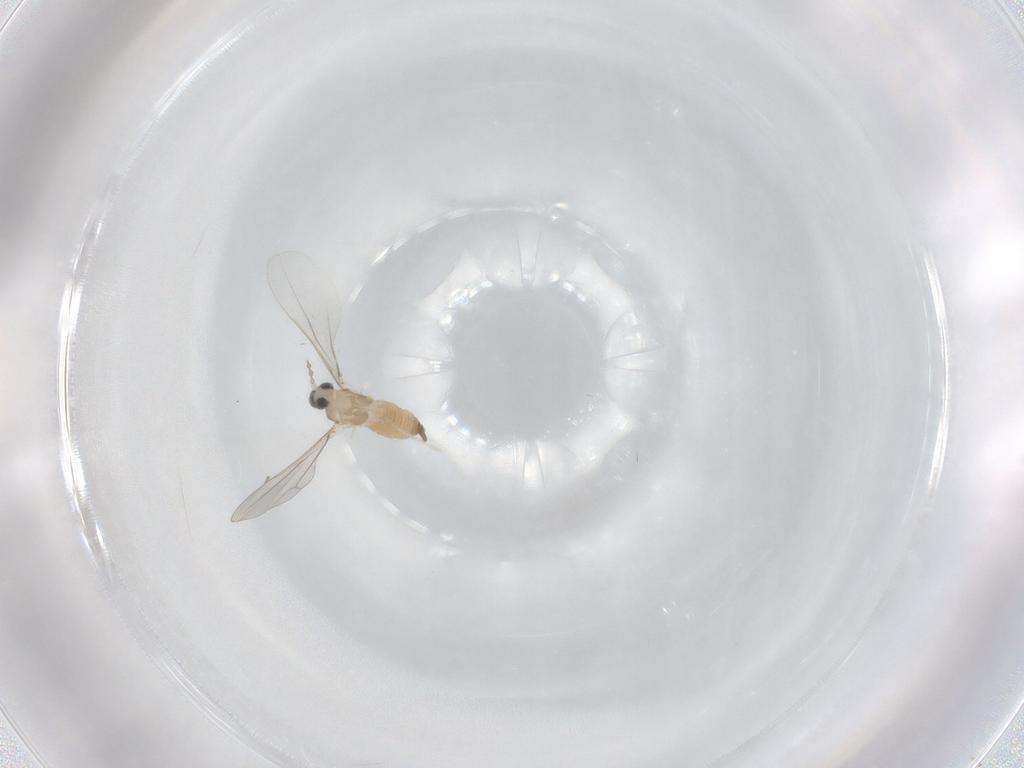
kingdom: Animalia
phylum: Arthropoda
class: Insecta
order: Diptera
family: Cecidomyiidae
